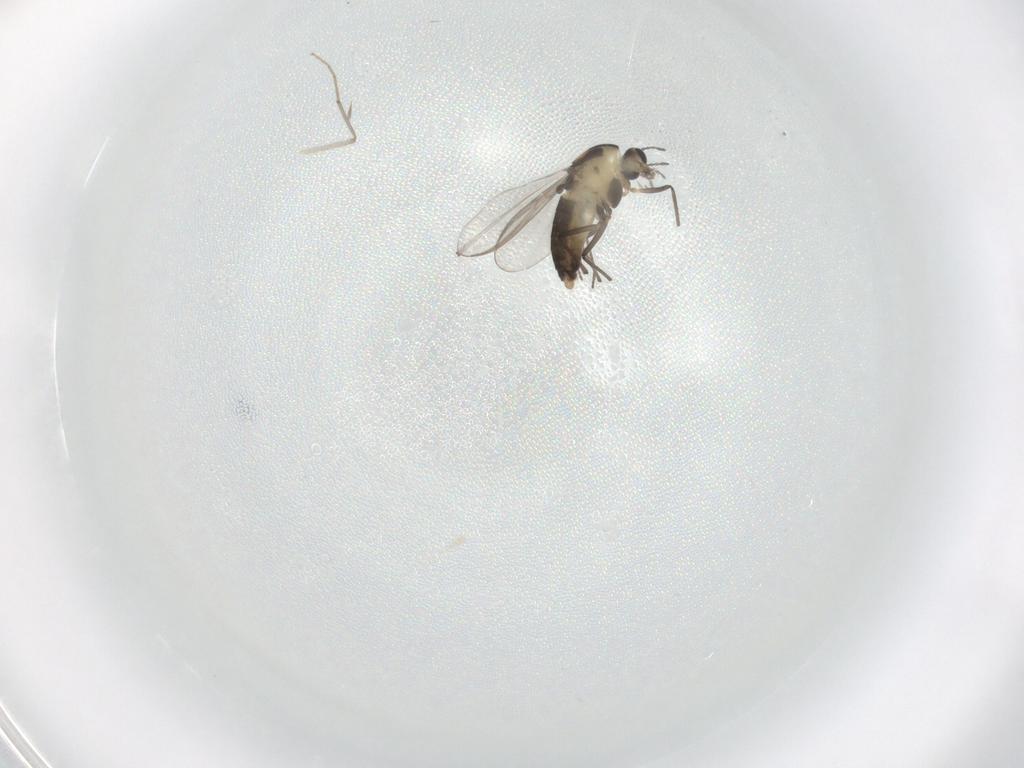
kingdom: Animalia
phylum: Arthropoda
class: Insecta
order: Diptera
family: Chironomidae
